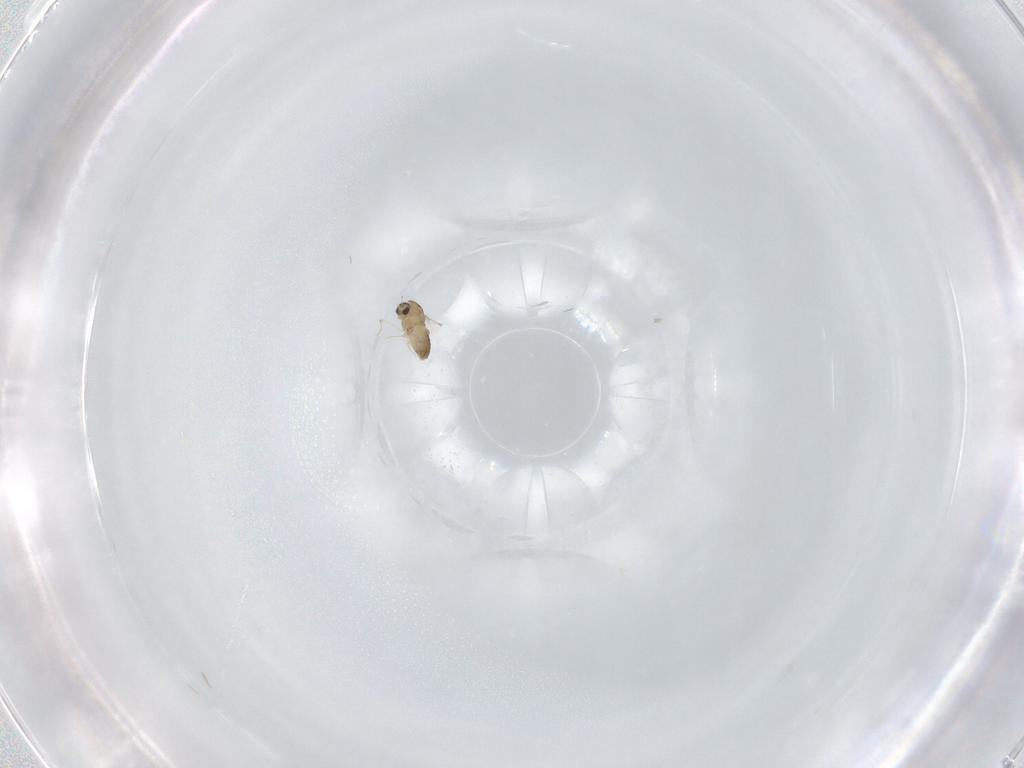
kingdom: Animalia
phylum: Arthropoda
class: Insecta
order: Diptera
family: Chironomidae
